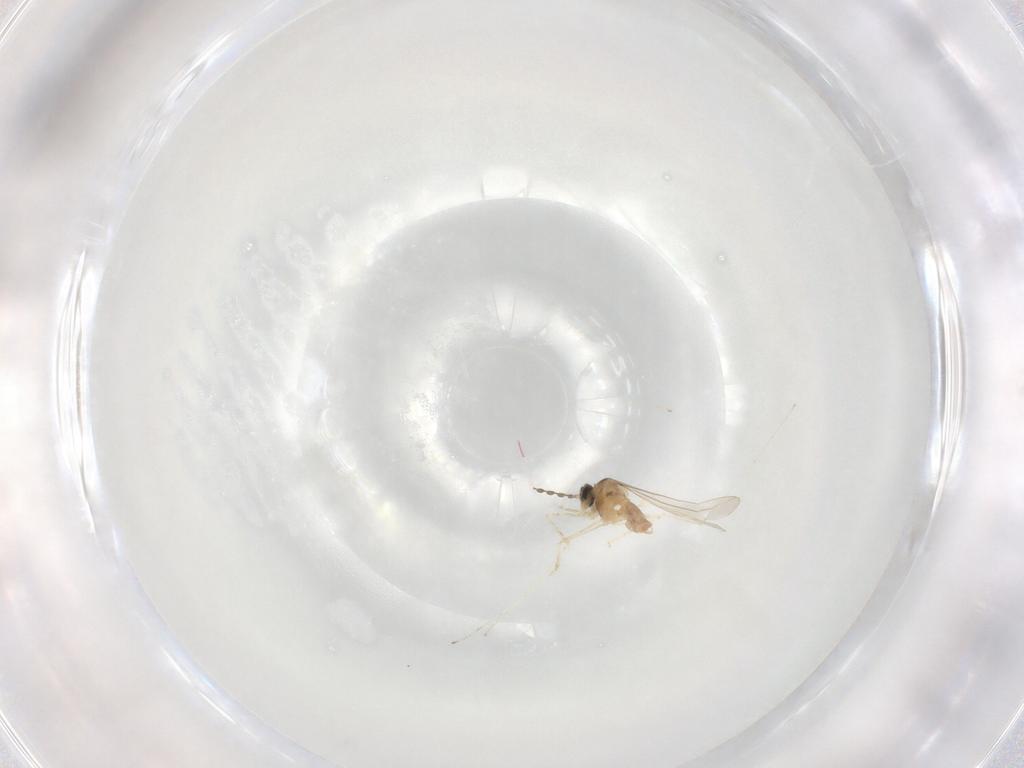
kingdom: Animalia
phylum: Arthropoda
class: Insecta
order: Diptera
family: Cecidomyiidae
